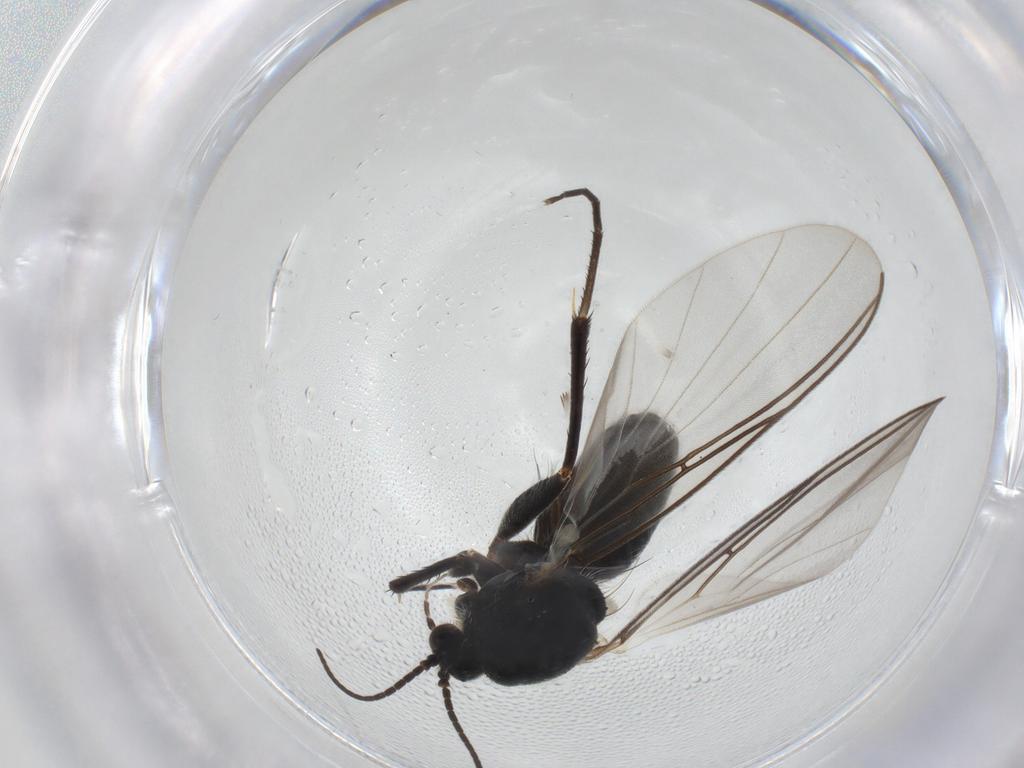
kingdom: Animalia
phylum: Arthropoda
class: Insecta
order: Diptera
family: Mycetophilidae
